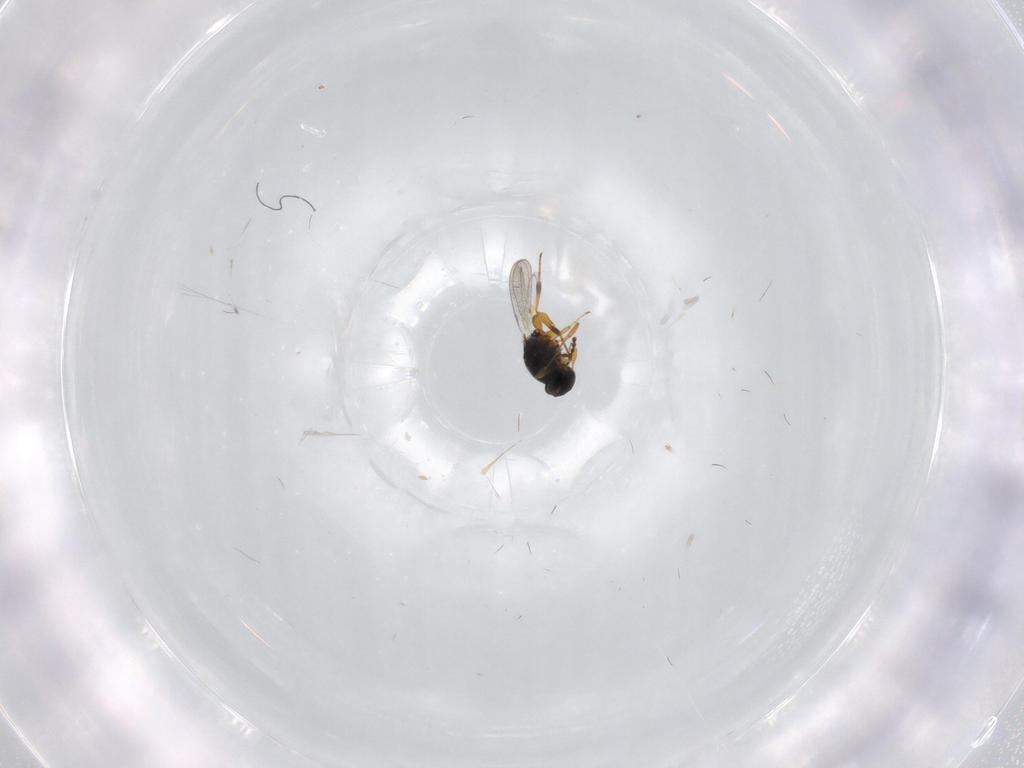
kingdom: Animalia
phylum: Arthropoda
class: Insecta
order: Hymenoptera
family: Platygastridae
